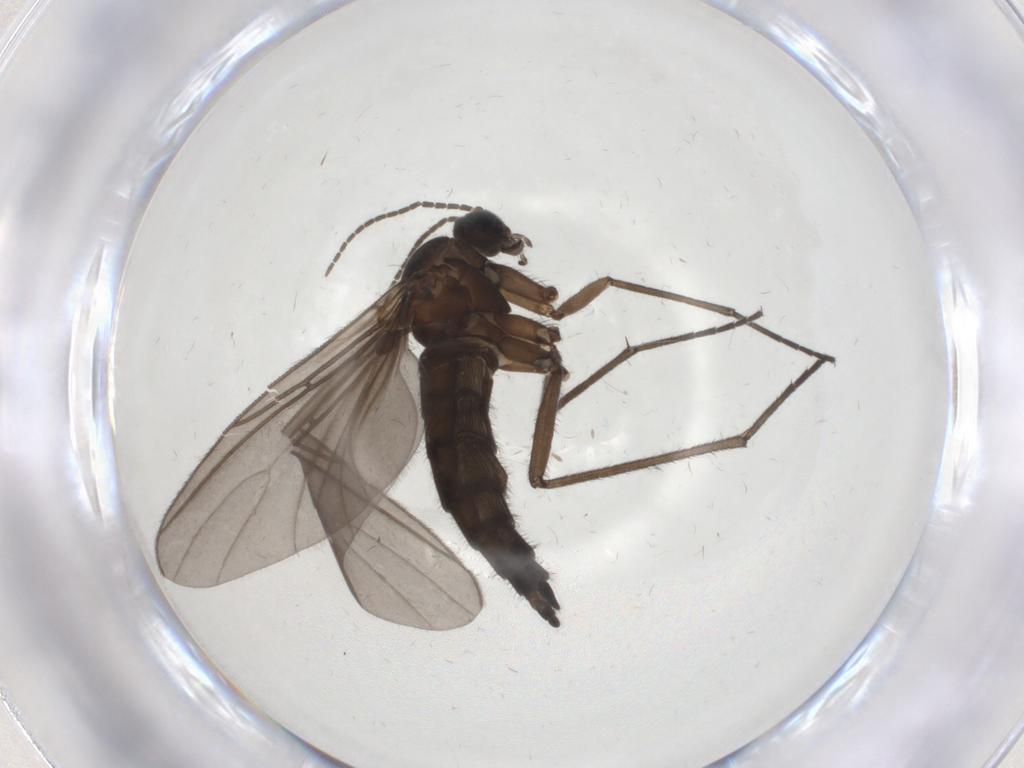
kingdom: Animalia
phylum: Arthropoda
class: Insecta
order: Diptera
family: Sciaridae
